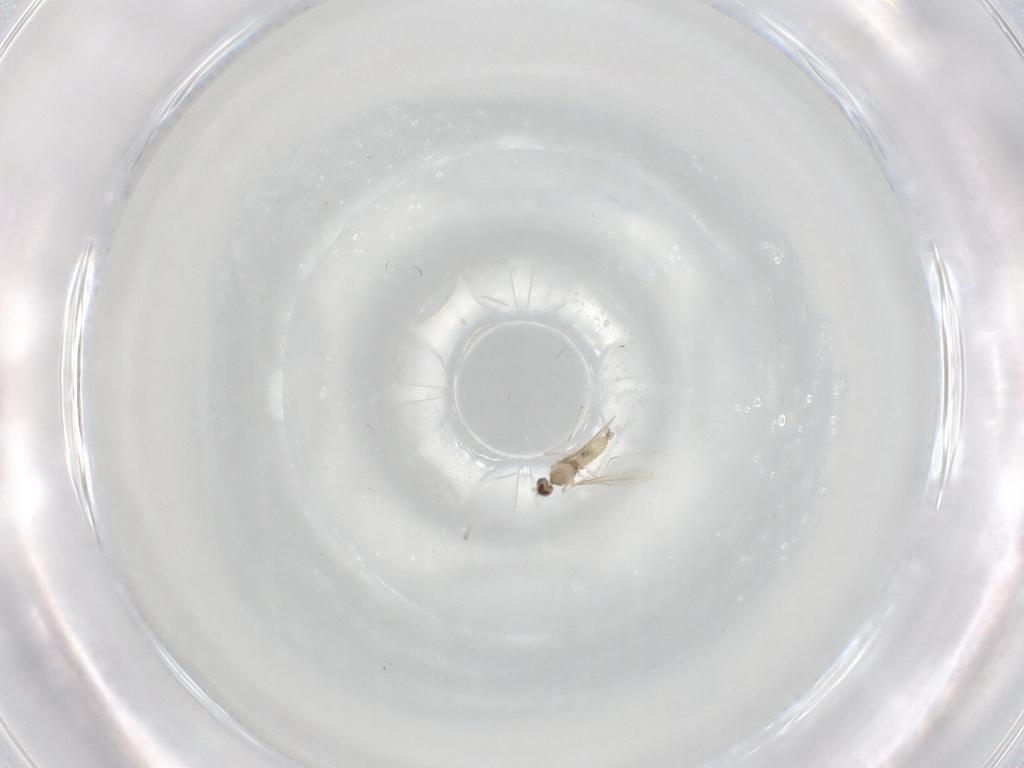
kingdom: Animalia
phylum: Arthropoda
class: Insecta
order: Diptera
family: Cecidomyiidae
